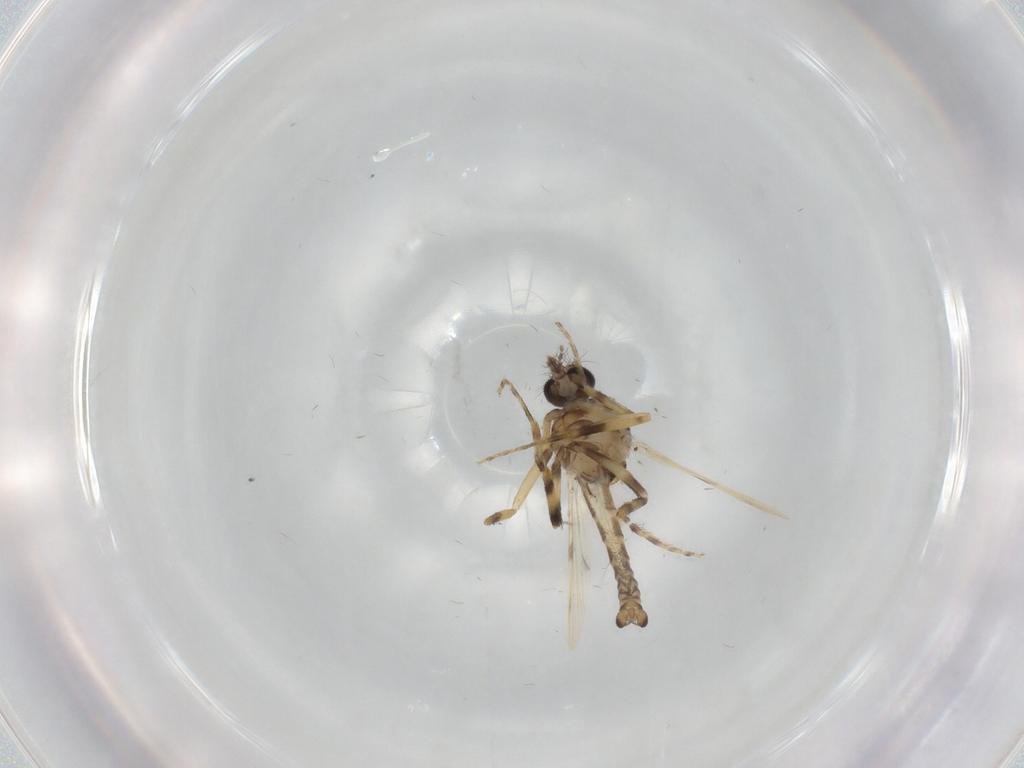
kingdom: Animalia
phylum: Arthropoda
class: Insecta
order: Diptera
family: Ceratopogonidae
